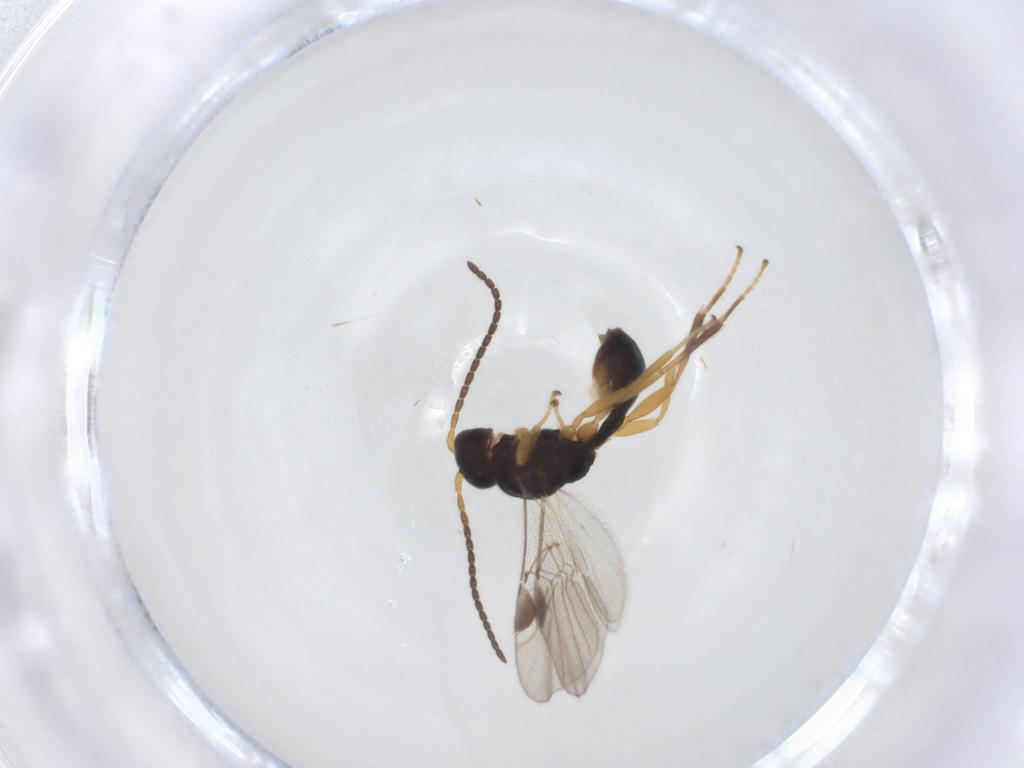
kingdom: Animalia
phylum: Arthropoda
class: Insecta
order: Hymenoptera
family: Braconidae
